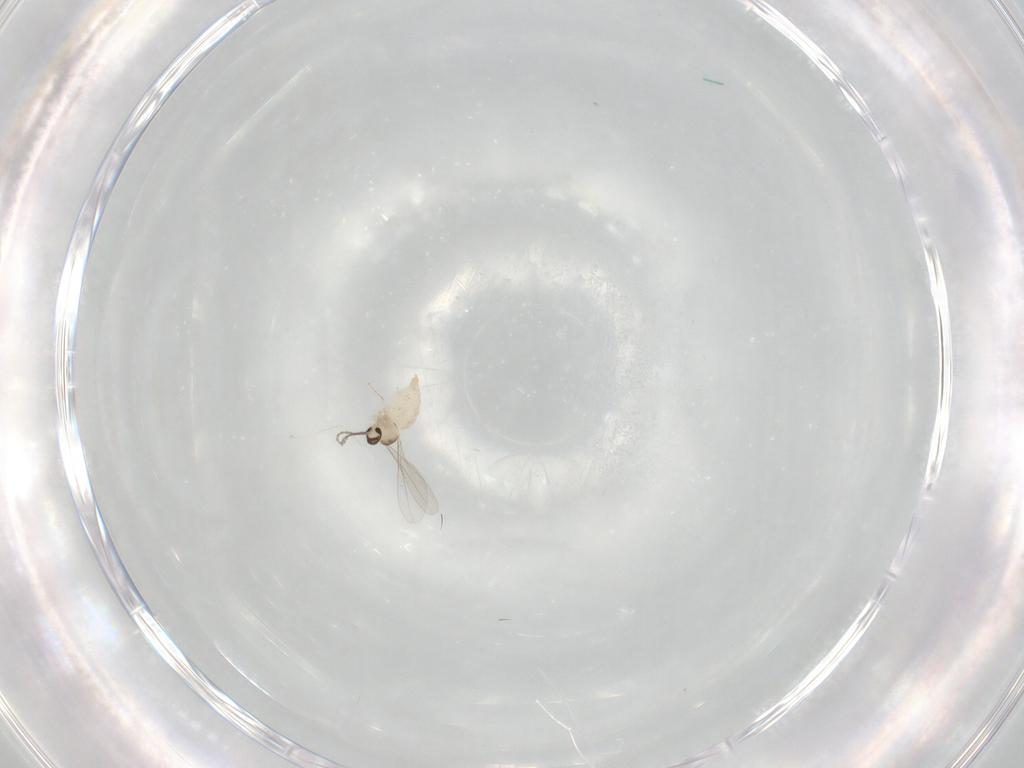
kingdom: Animalia
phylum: Arthropoda
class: Insecta
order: Diptera
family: Cecidomyiidae
